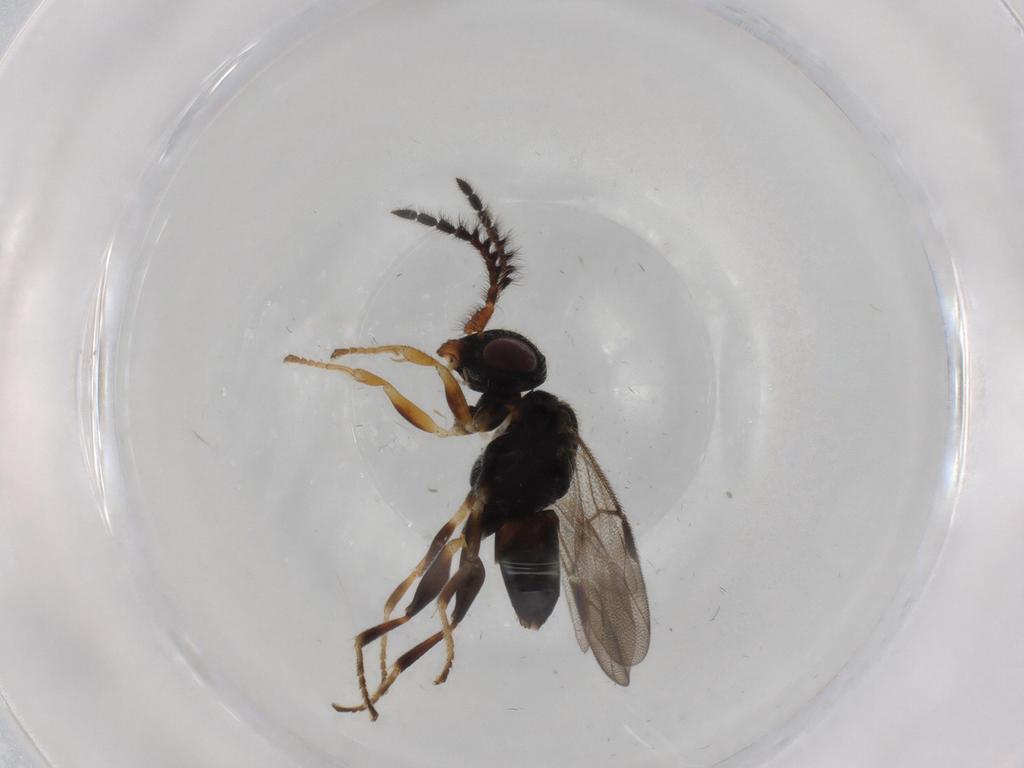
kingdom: Animalia
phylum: Arthropoda
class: Insecta
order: Hymenoptera
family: Dryinidae
